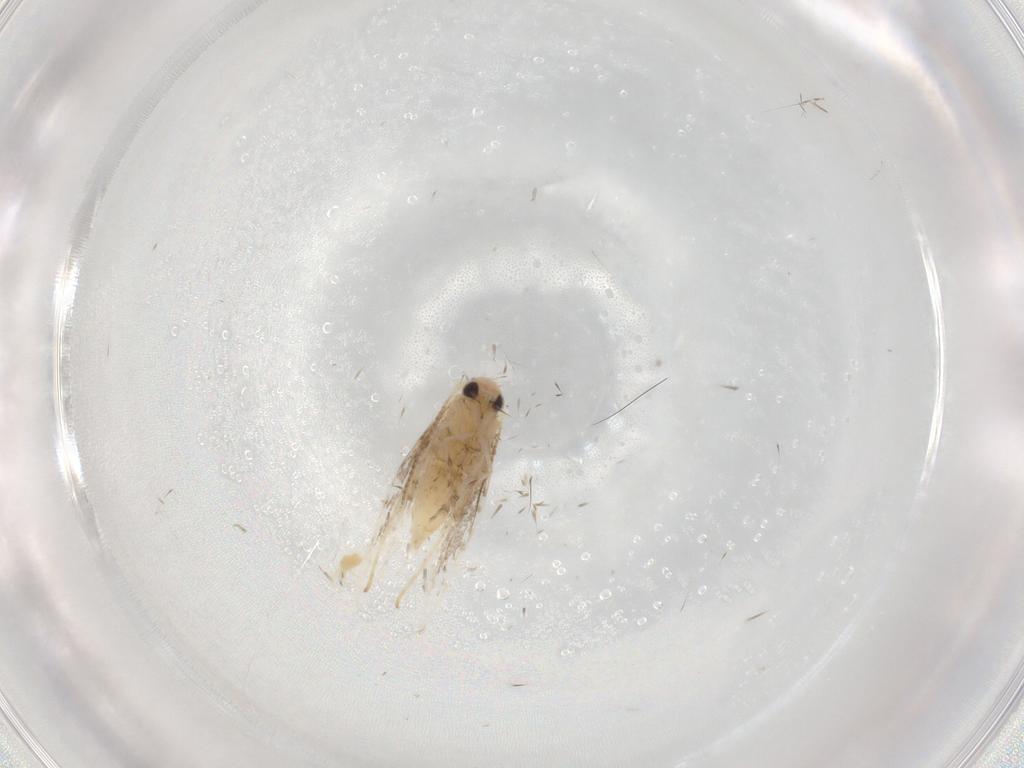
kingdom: Animalia
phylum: Arthropoda
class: Insecta
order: Lepidoptera
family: Gracillariidae
